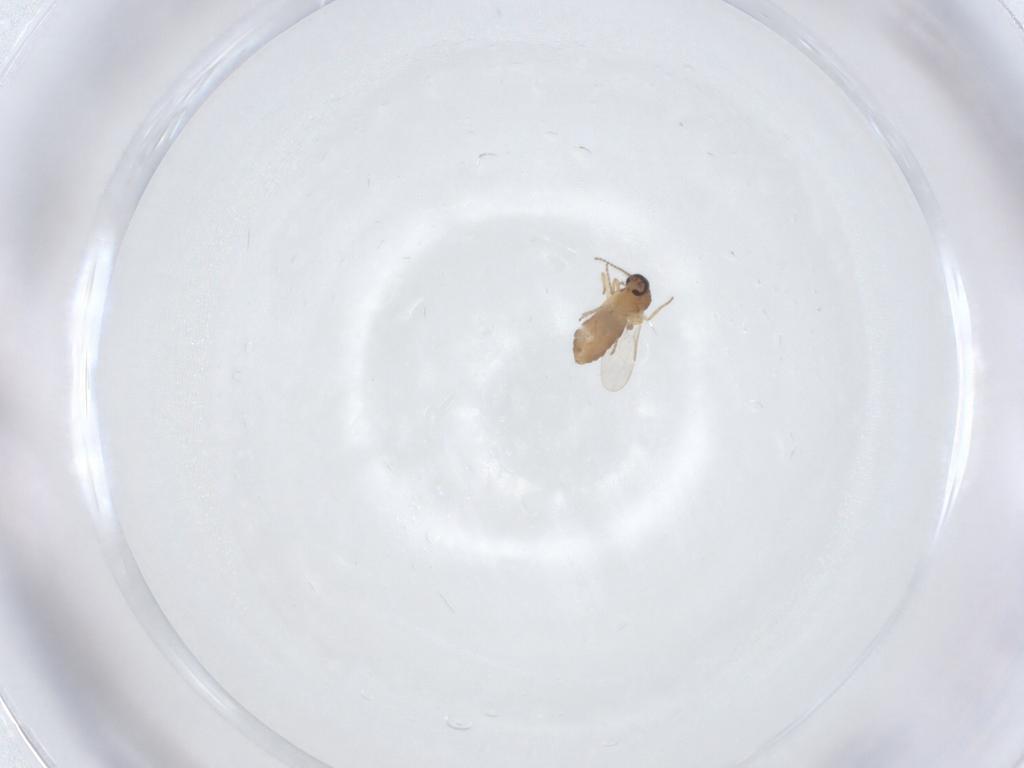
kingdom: Animalia
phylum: Arthropoda
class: Insecta
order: Diptera
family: Ceratopogonidae
